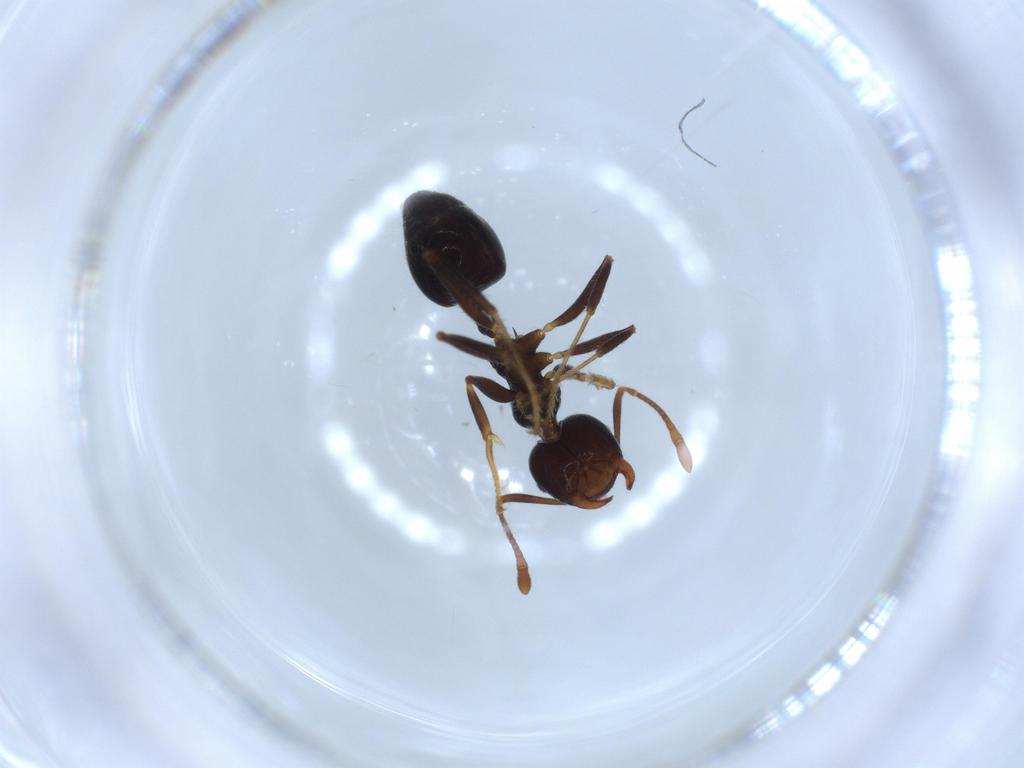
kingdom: Animalia
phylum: Arthropoda
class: Insecta
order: Hymenoptera
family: Formicidae
